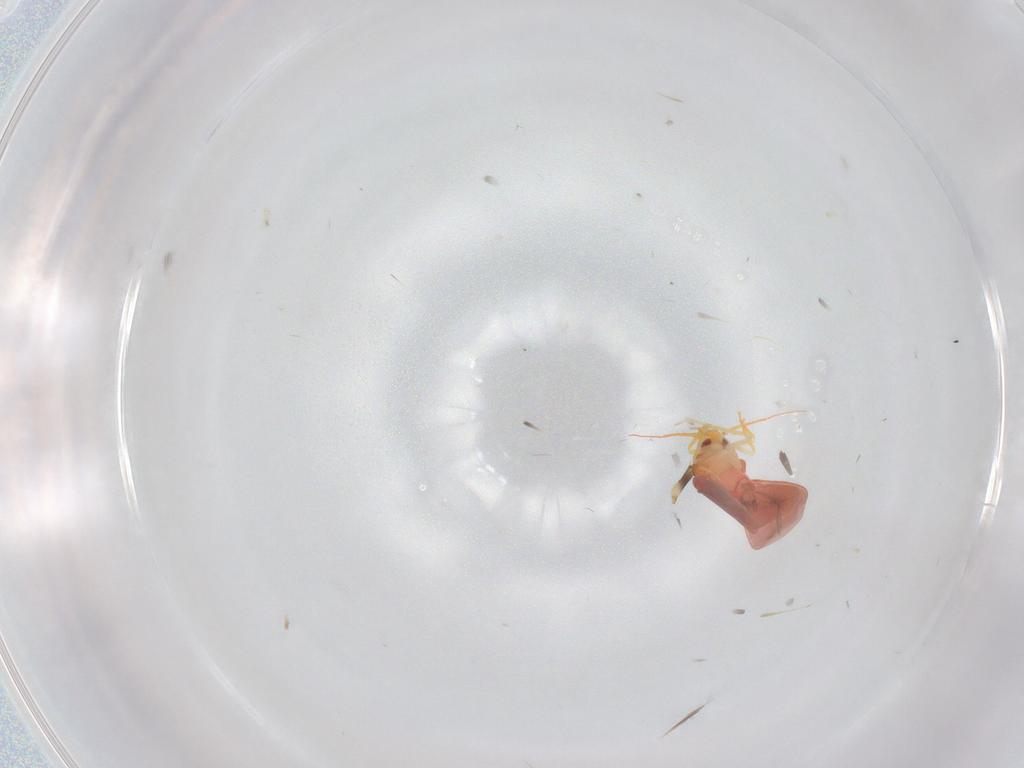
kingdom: Animalia
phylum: Arthropoda
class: Insecta
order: Hemiptera
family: Aleyrodidae
